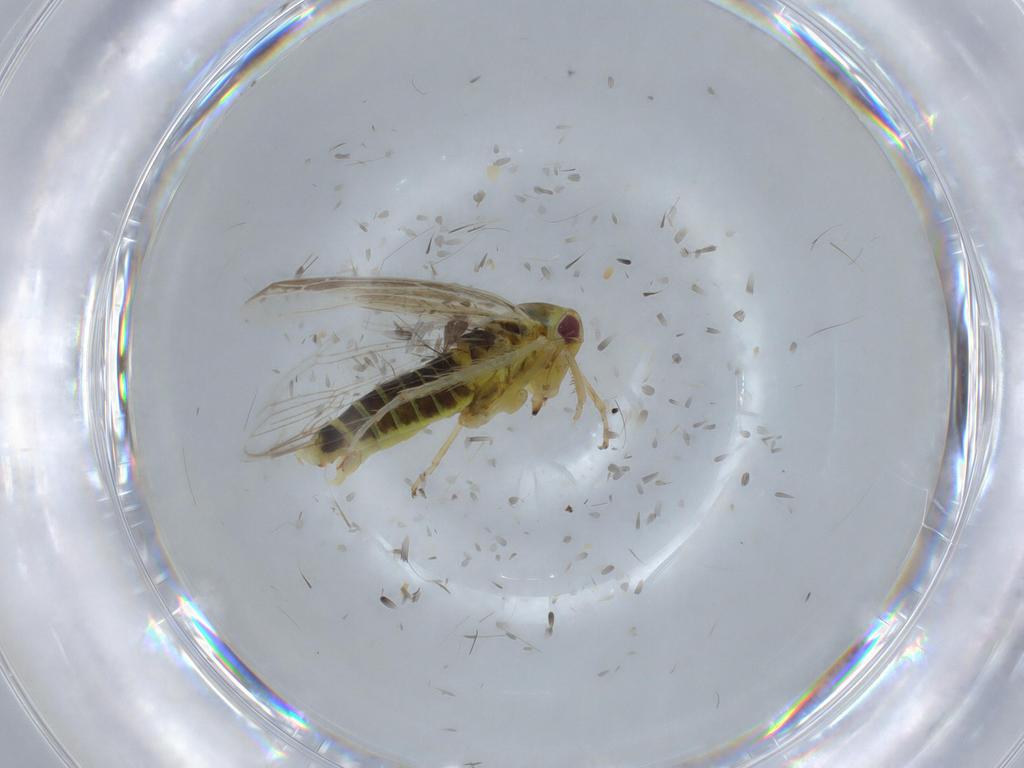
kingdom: Animalia
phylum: Arthropoda
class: Insecta
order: Hemiptera
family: Cicadellidae
